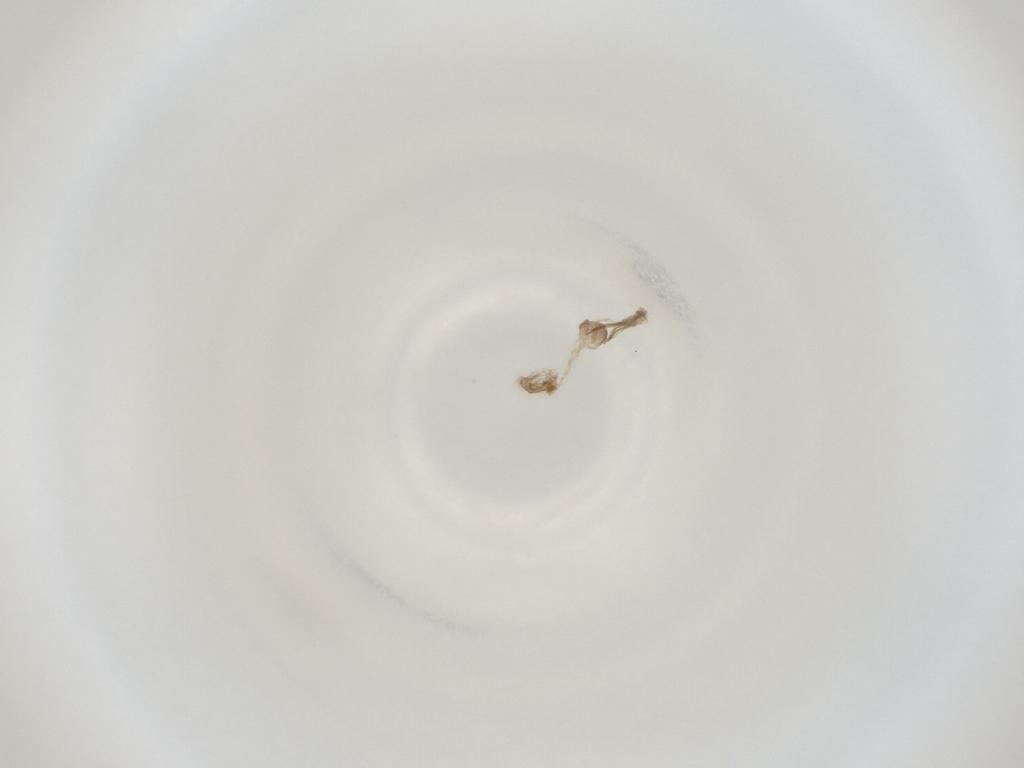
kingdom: Animalia
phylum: Arthropoda
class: Insecta
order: Diptera
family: Cecidomyiidae
